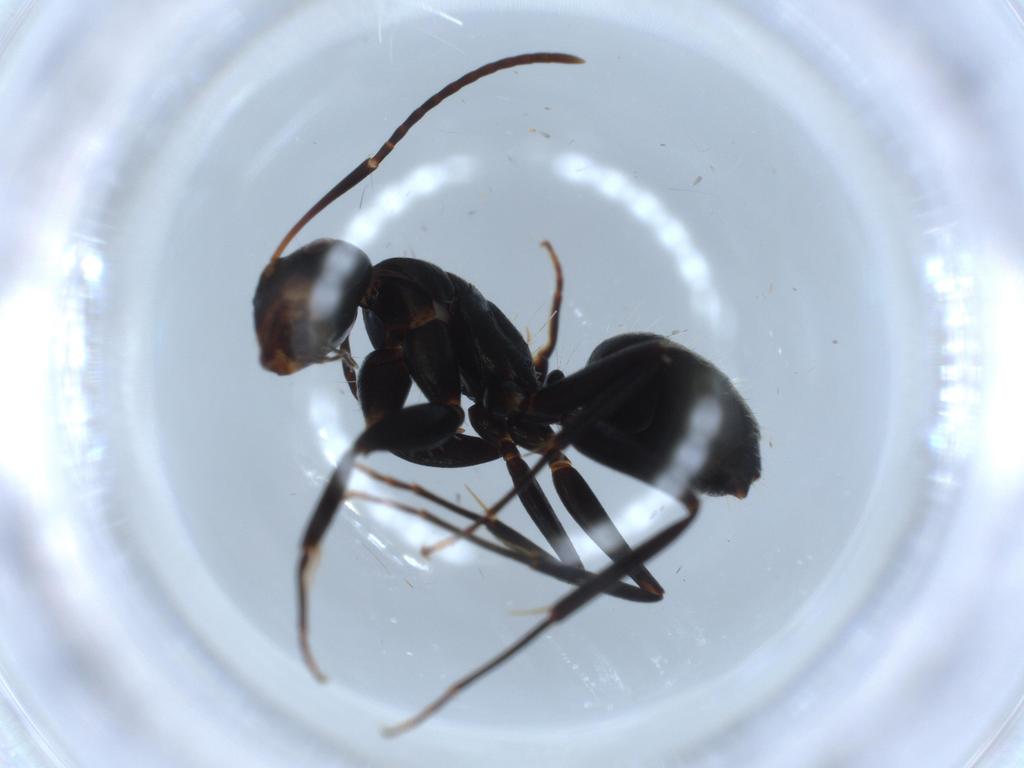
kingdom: Animalia
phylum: Arthropoda
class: Insecta
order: Hymenoptera
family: Formicidae
